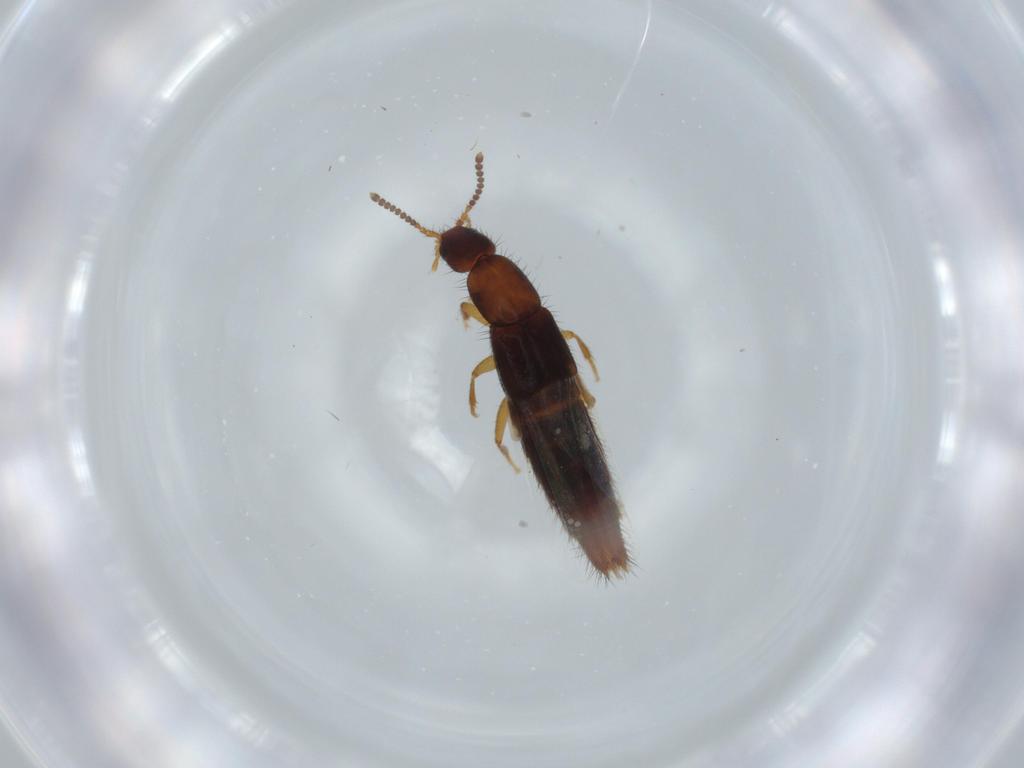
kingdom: Animalia
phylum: Arthropoda
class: Insecta
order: Coleoptera
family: Staphylinidae
